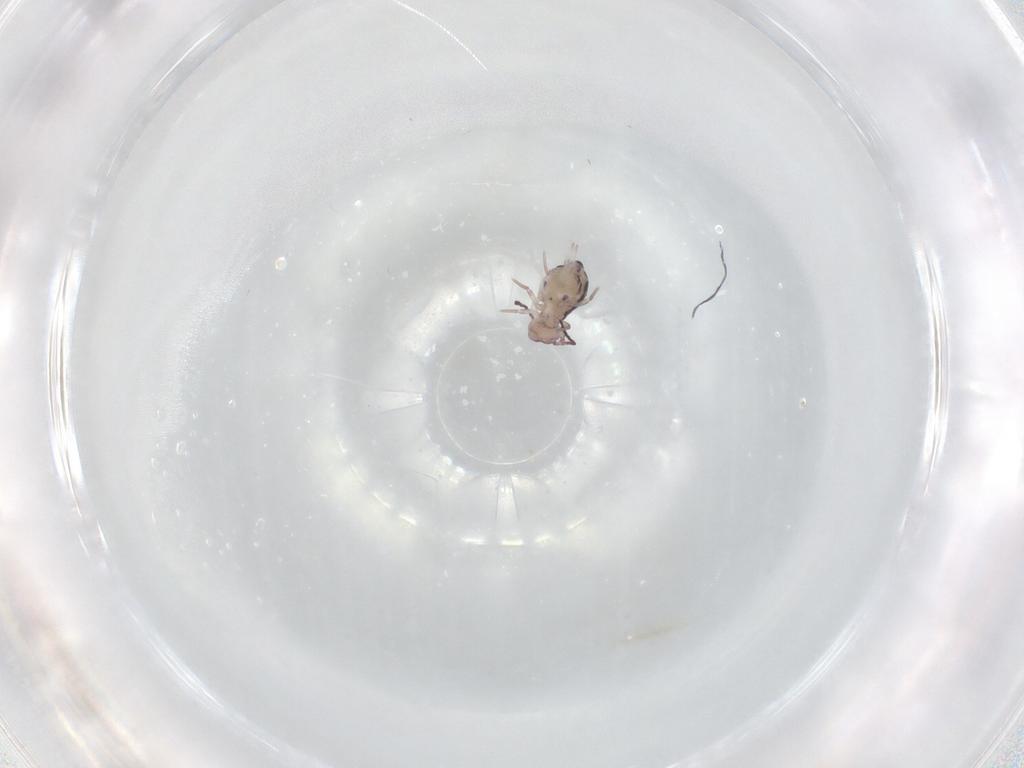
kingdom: Animalia
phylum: Arthropoda
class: Collembola
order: Symphypleona
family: Dicyrtomidae
